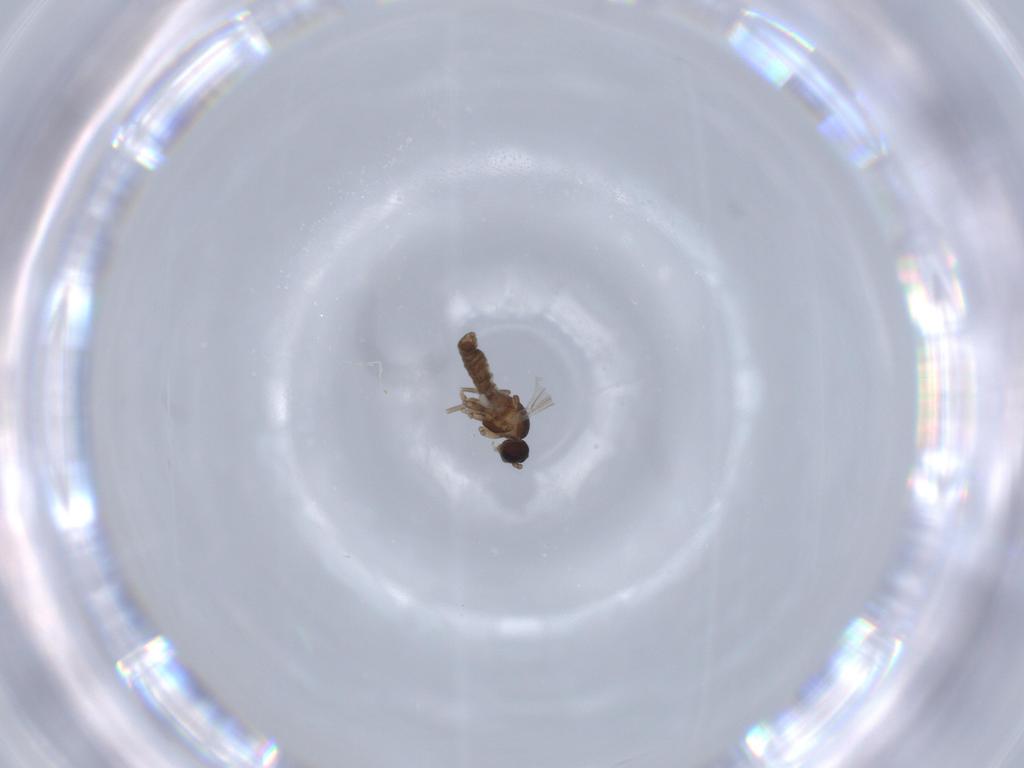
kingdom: Animalia
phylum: Arthropoda
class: Insecta
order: Diptera
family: Cecidomyiidae
